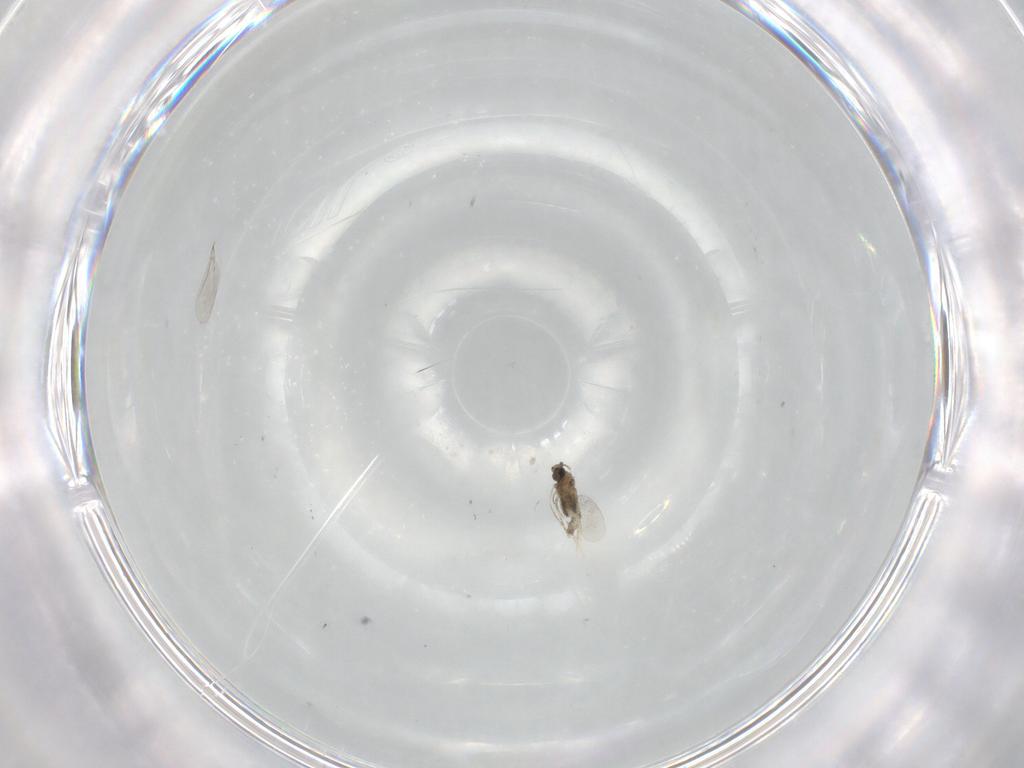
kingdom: Animalia
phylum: Arthropoda
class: Insecta
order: Diptera
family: Cecidomyiidae
